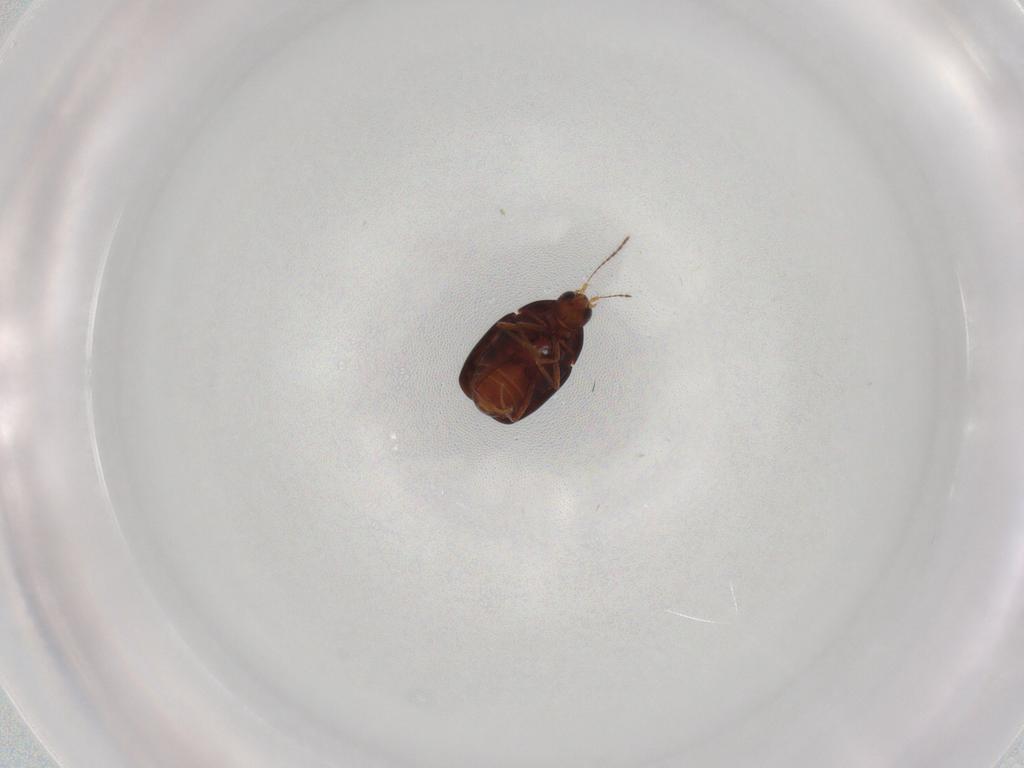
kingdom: Animalia
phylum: Arthropoda
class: Insecta
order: Coleoptera
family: Staphylinidae
